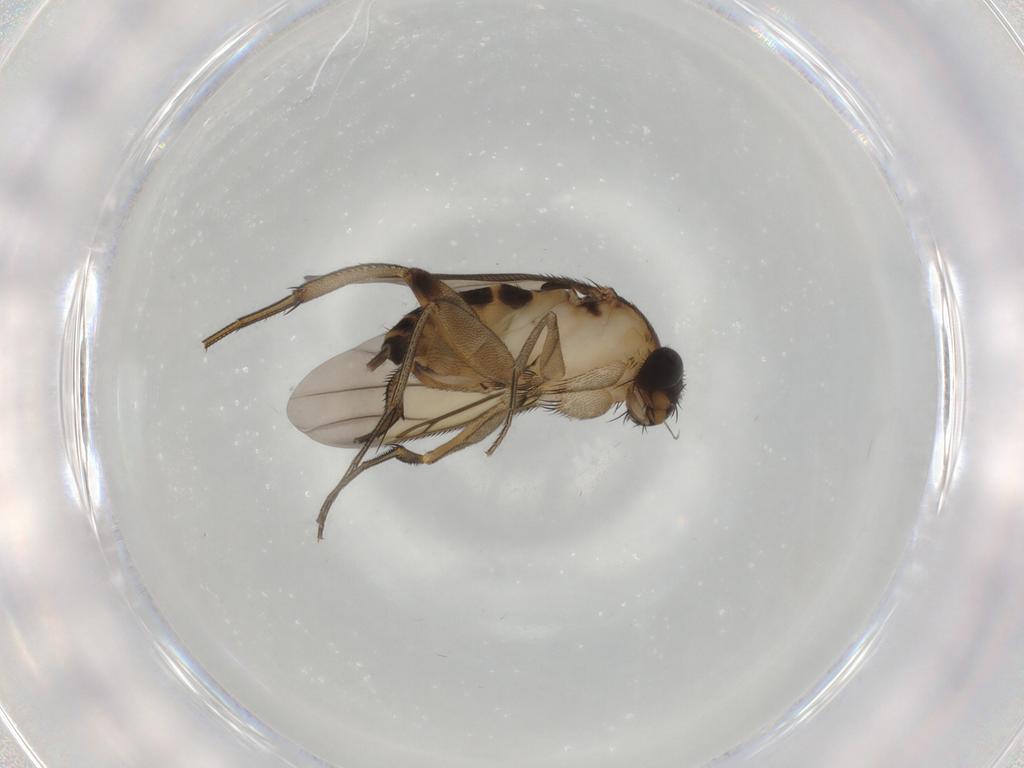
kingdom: Animalia
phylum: Arthropoda
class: Insecta
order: Diptera
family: Phoridae
